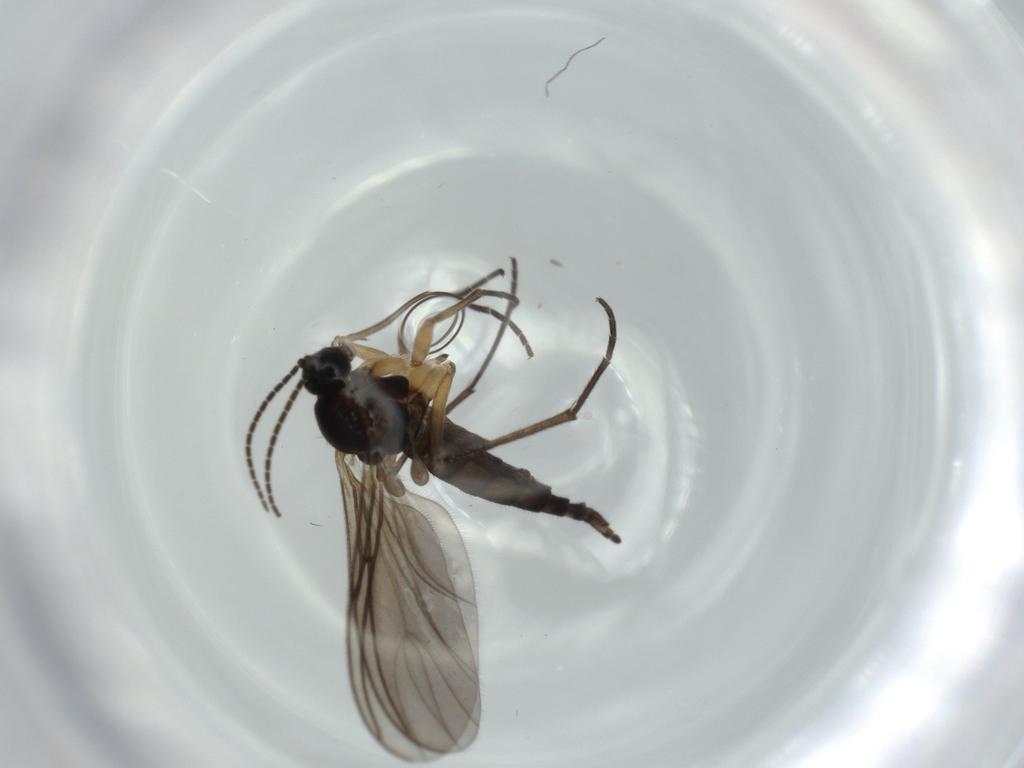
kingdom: Animalia
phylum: Arthropoda
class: Insecta
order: Diptera
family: Sciaridae
